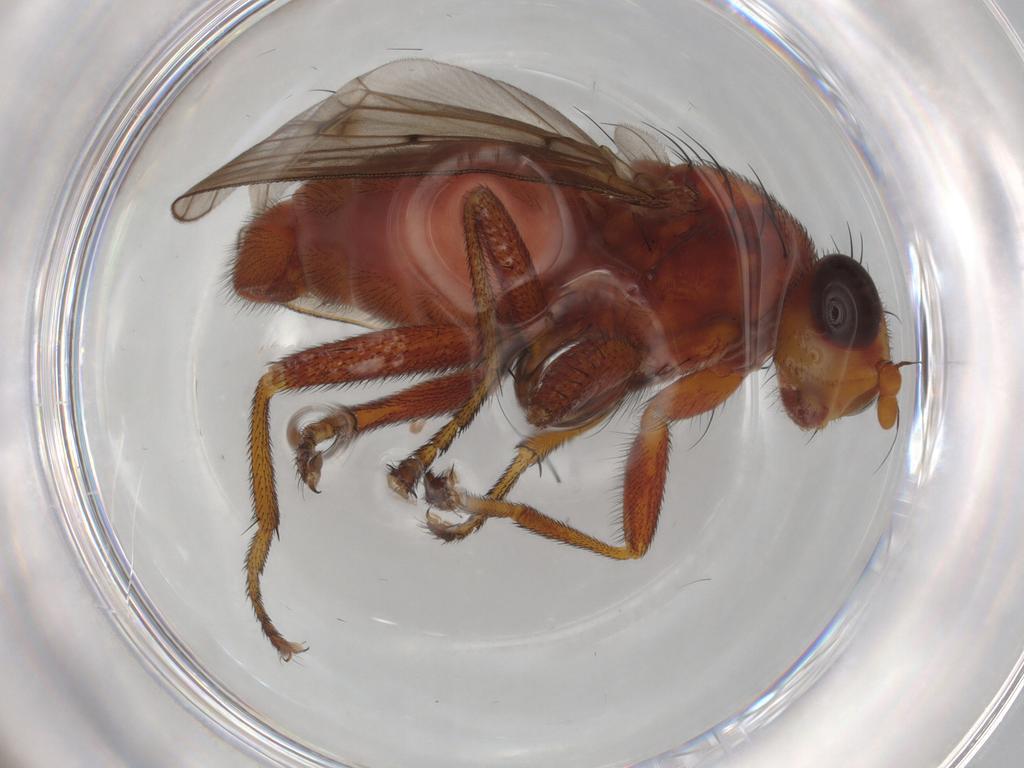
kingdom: Animalia
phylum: Arthropoda
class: Insecta
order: Diptera
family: Sciomyzidae
